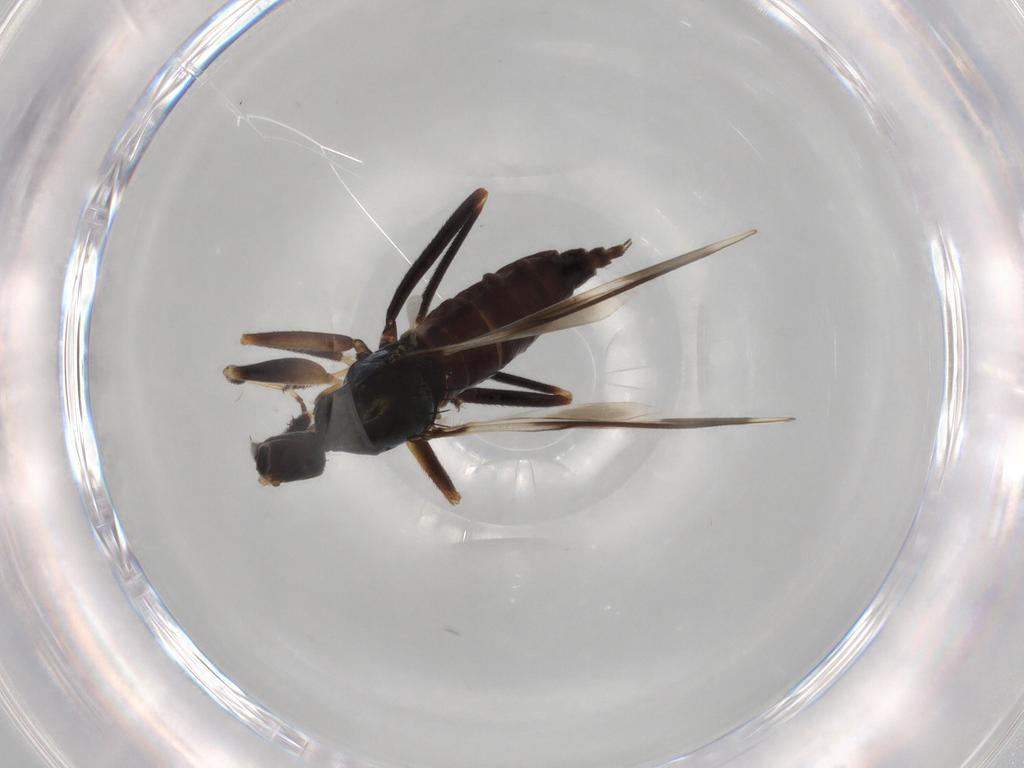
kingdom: Animalia
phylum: Arthropoda
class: Insecta
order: Diptera
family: Hybotidae
